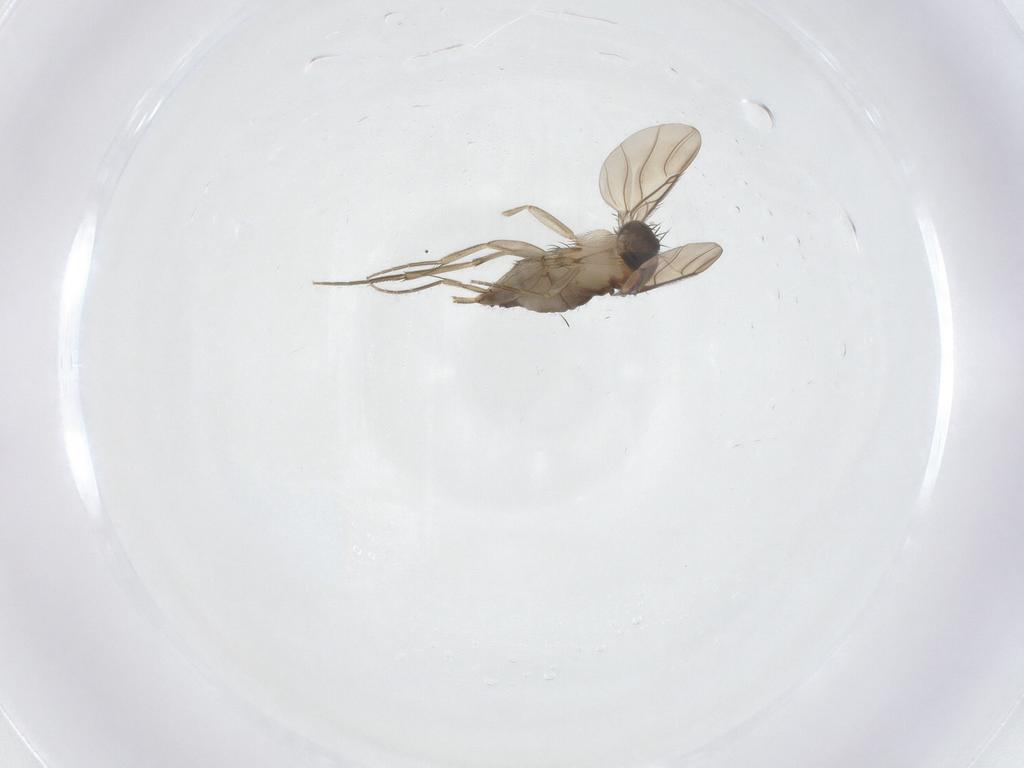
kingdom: Animalia
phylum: Arthropoda
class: Insecta
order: Diptera
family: Phoridae
